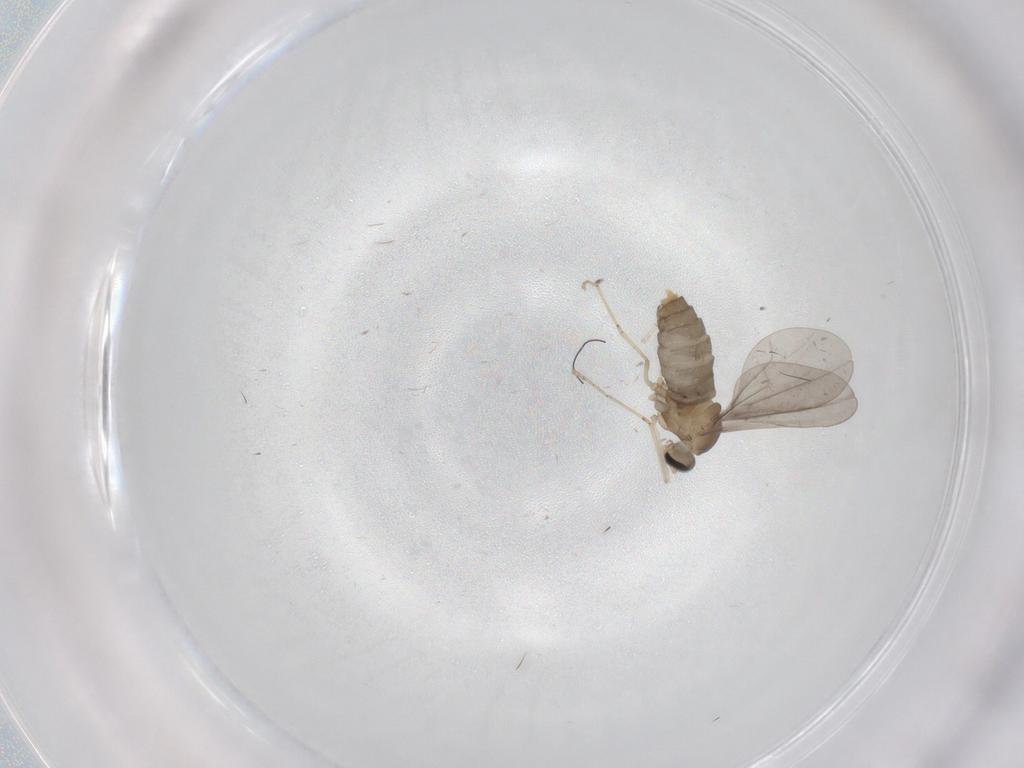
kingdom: Animalia
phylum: Arthropoda
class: Insecta
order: Diptera
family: Cecidomyiidae
